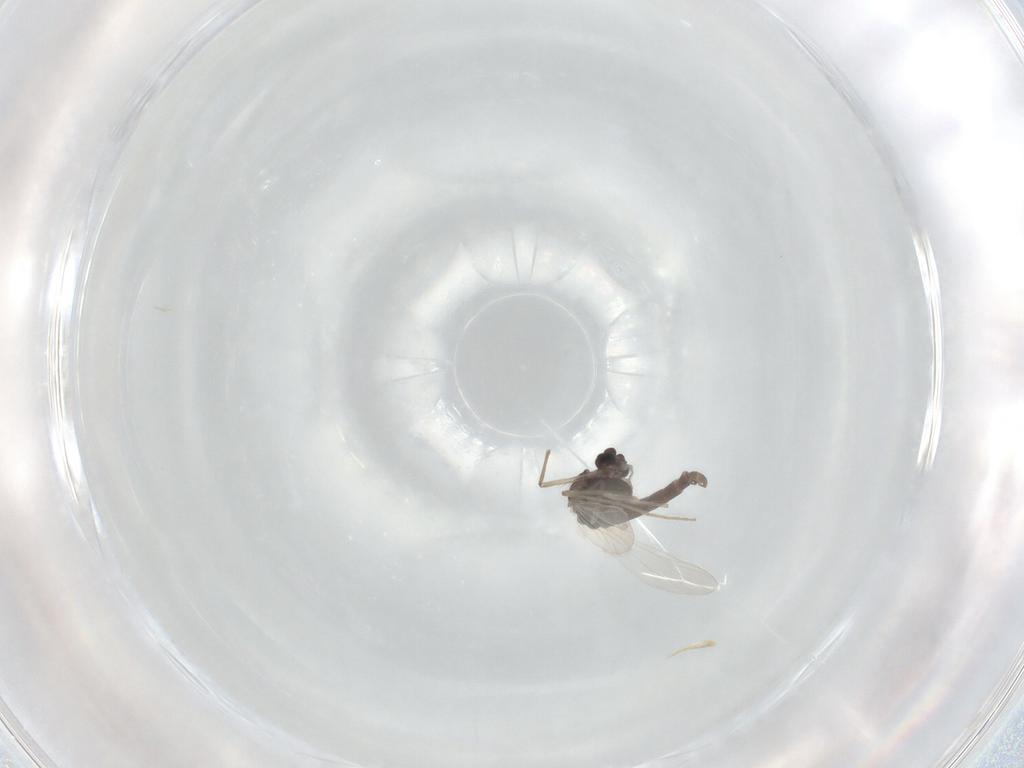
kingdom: Animalia
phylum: Arthropoda
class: Insecta
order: Diptera
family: Chironomidae
